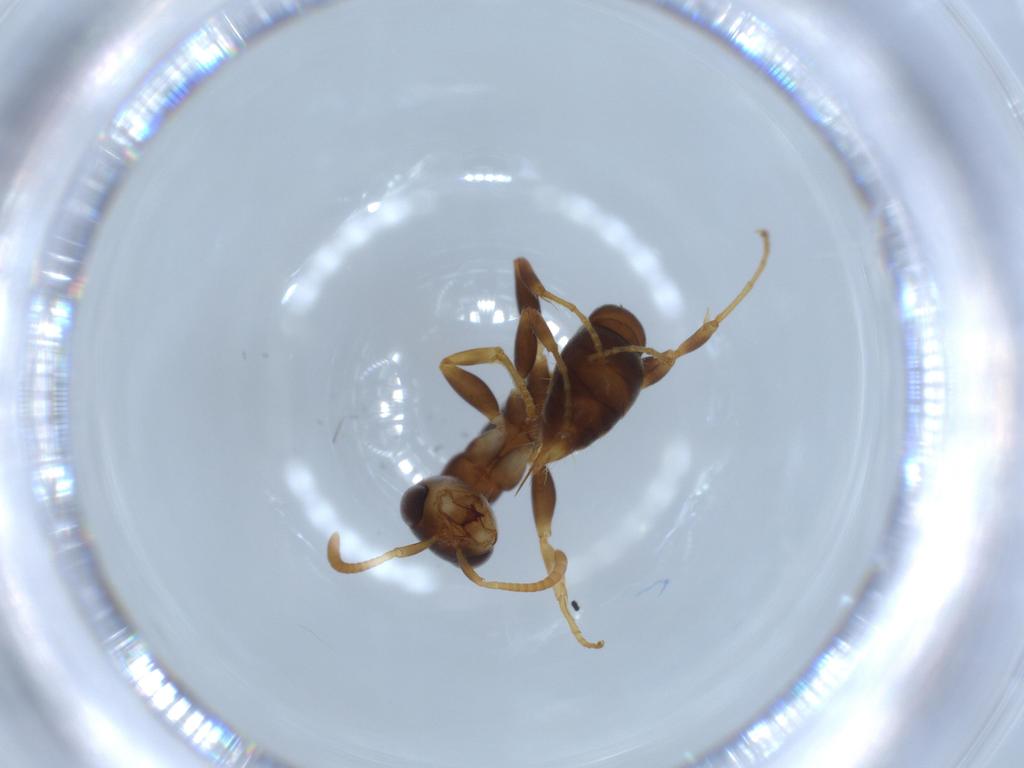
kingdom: Animalia
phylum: Arthropoda
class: Insecta
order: Hymenoptera
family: Formicidae
